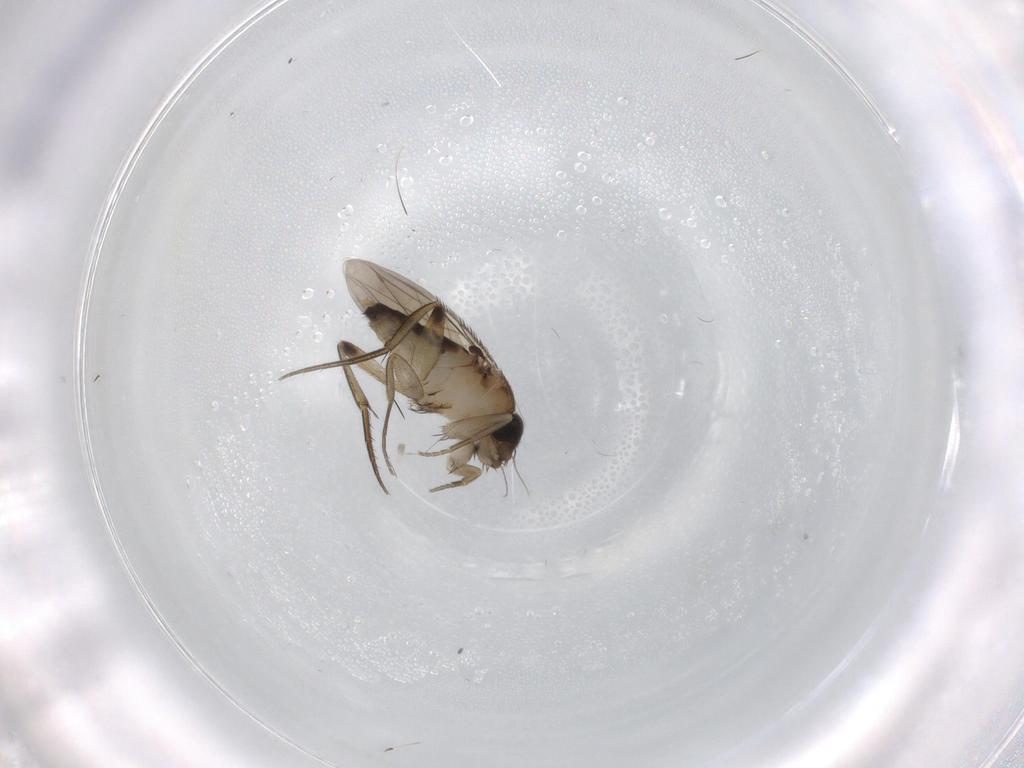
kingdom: Animalia
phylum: Arthropoda
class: Insecta
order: Diptera
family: Phoridae
